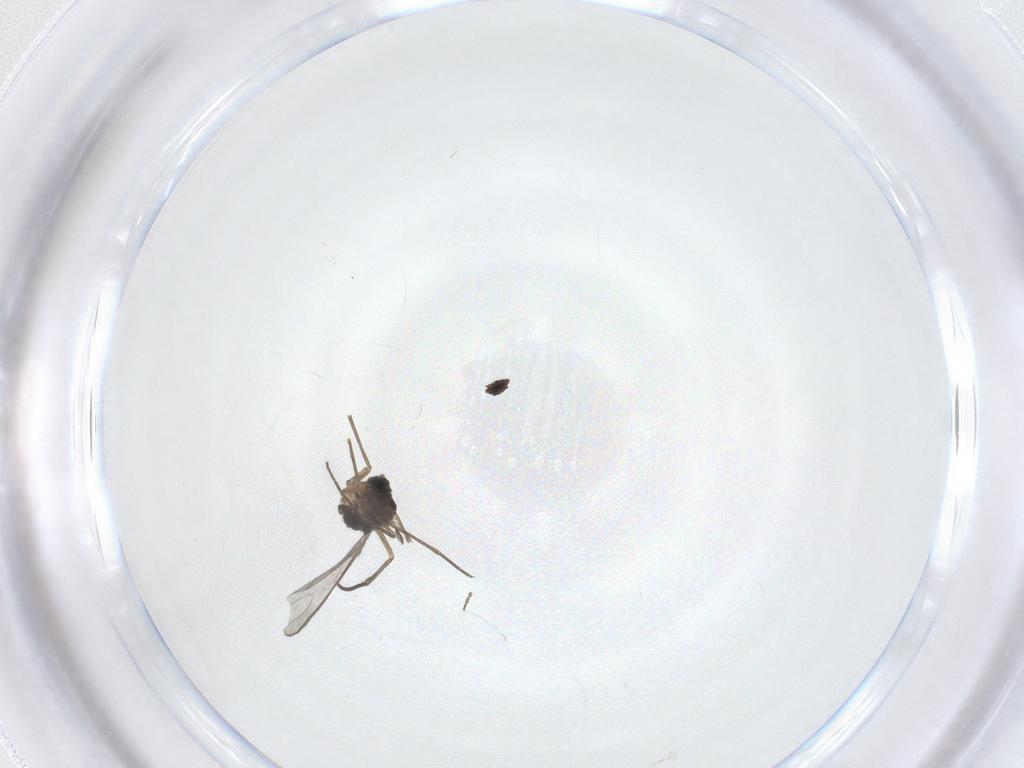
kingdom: Animalia
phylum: Arthropoda
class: Insecta
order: Diptera
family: Sciaridae
